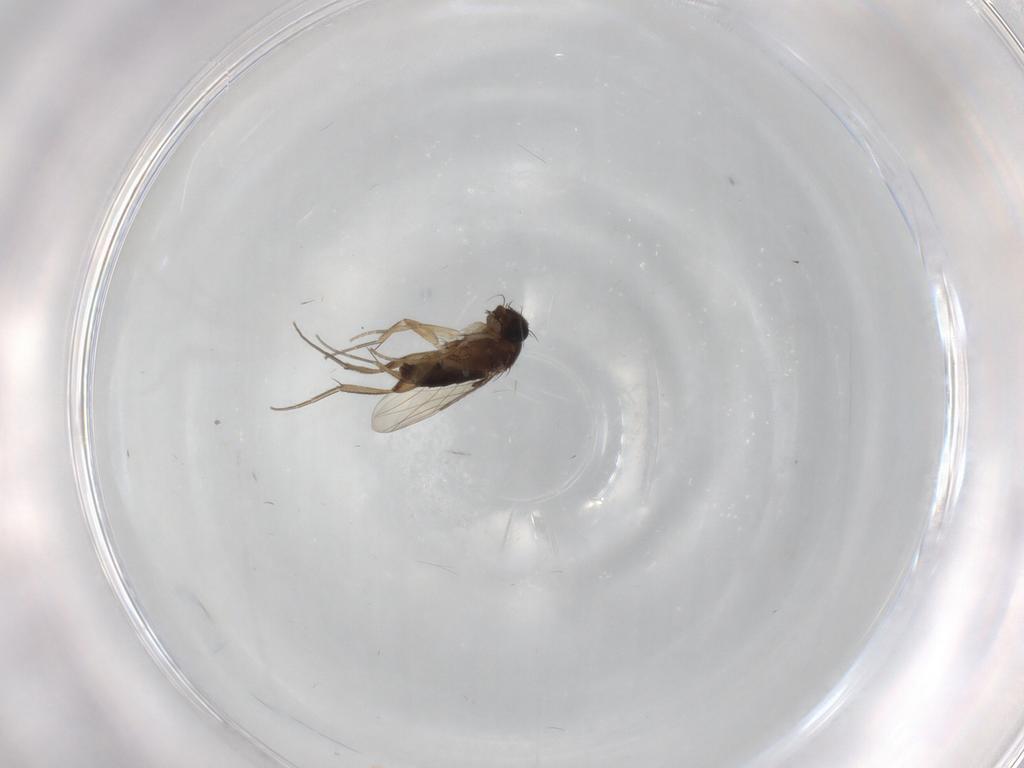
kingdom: Animalia
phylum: Arthropoda
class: Insecta
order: Diptera
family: Phoridae
